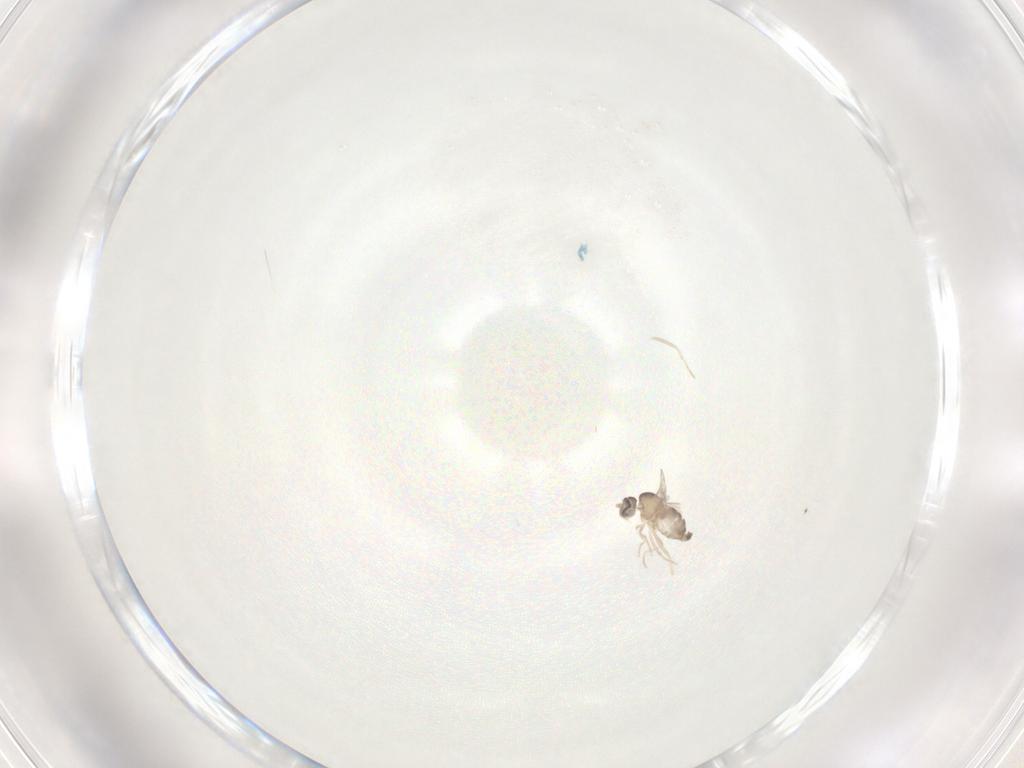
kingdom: Animalia
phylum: Arthropoda
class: Insecta
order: Diptera
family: Cecidomyiidae
